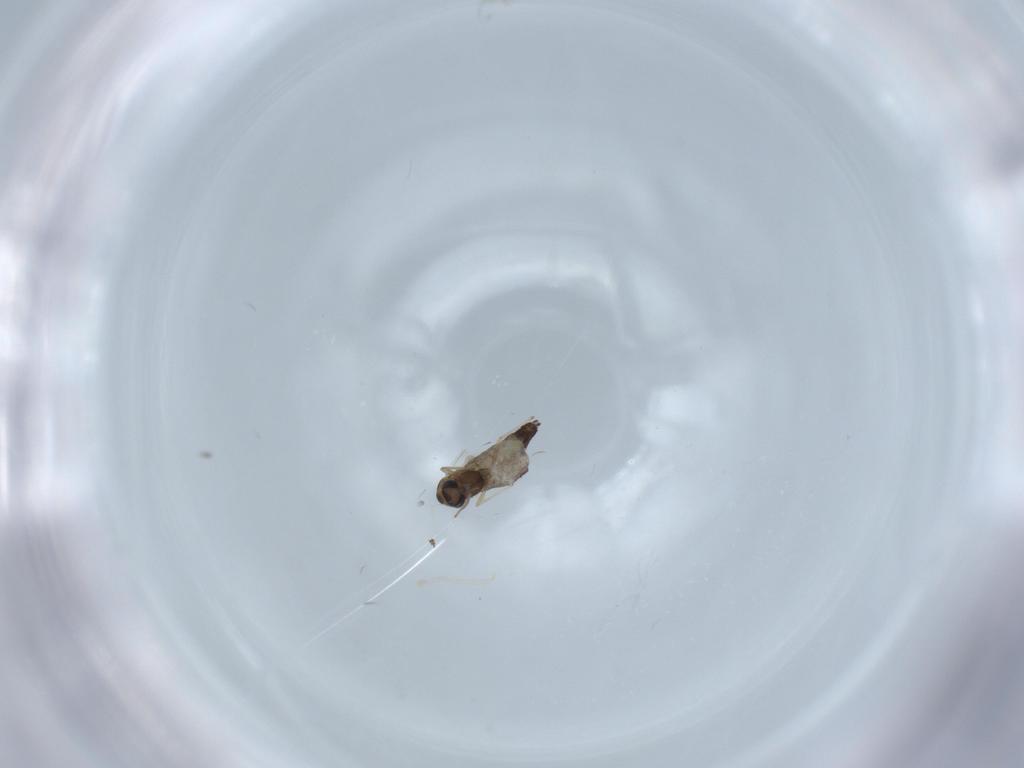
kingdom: Animalia
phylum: Arthropoda
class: Insecta
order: Diptera
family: Chironomidae
